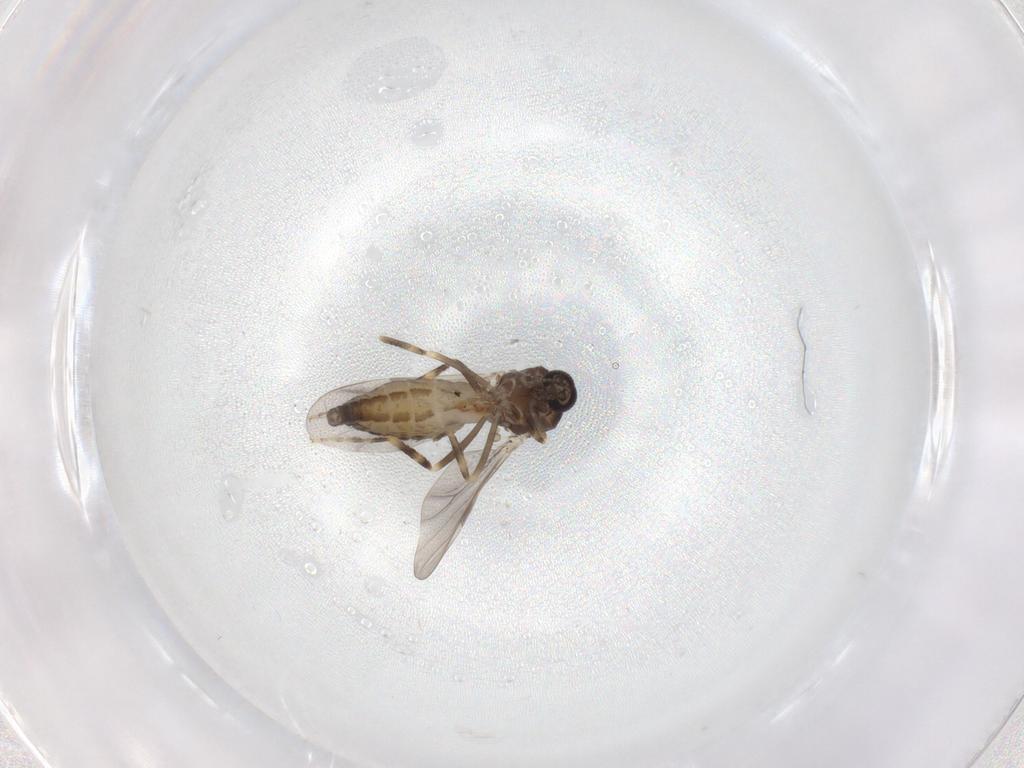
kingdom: Animalia
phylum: Arthropoda
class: Insecta
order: Diptera
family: Ceratopogonidae
